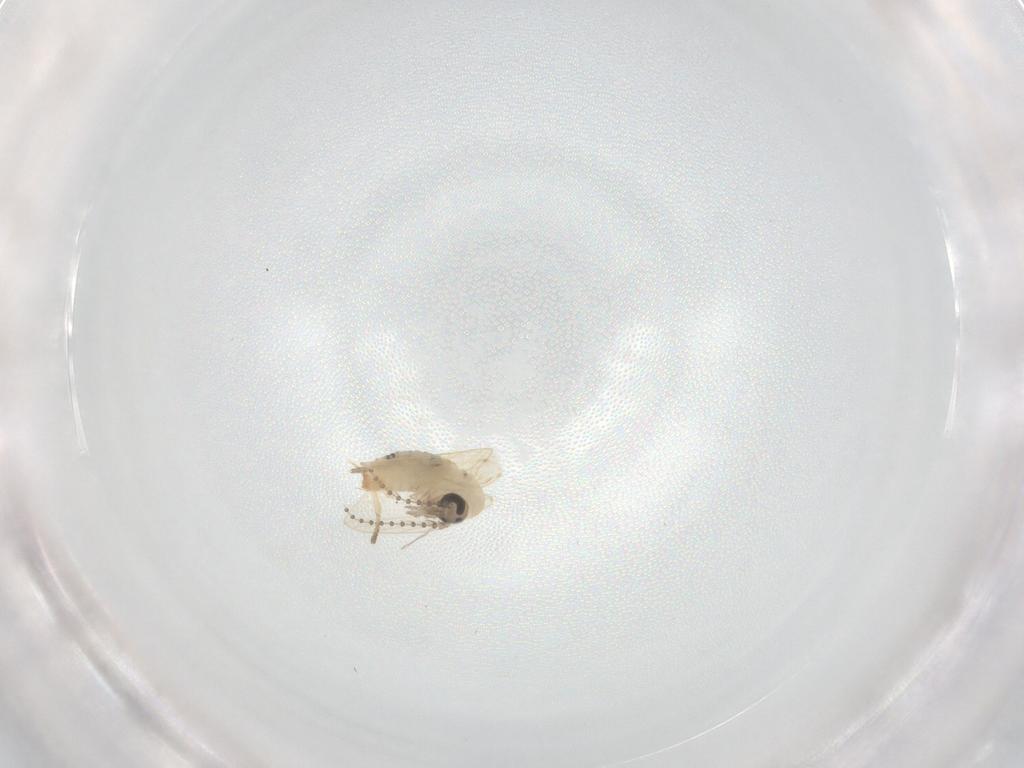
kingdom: Animalia
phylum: Arthropoda
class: Insecta
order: Diptera
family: Psychodidae
